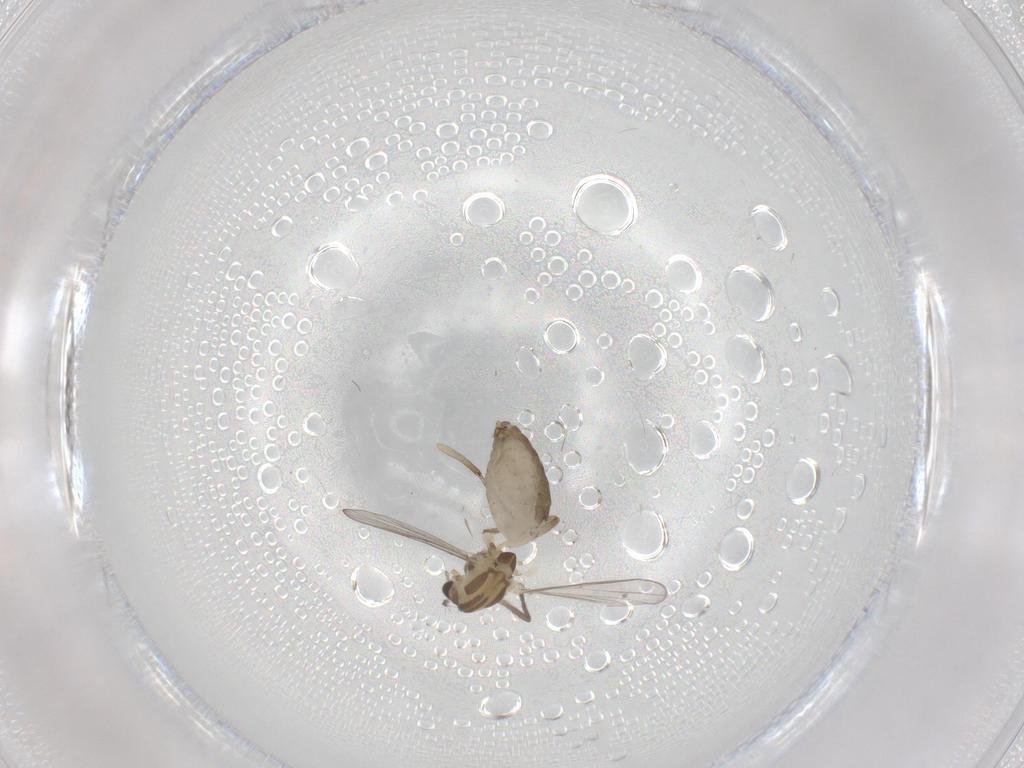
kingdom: Animalia
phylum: Arthropoda
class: Insecta
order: Diptera
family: Chironomidae
